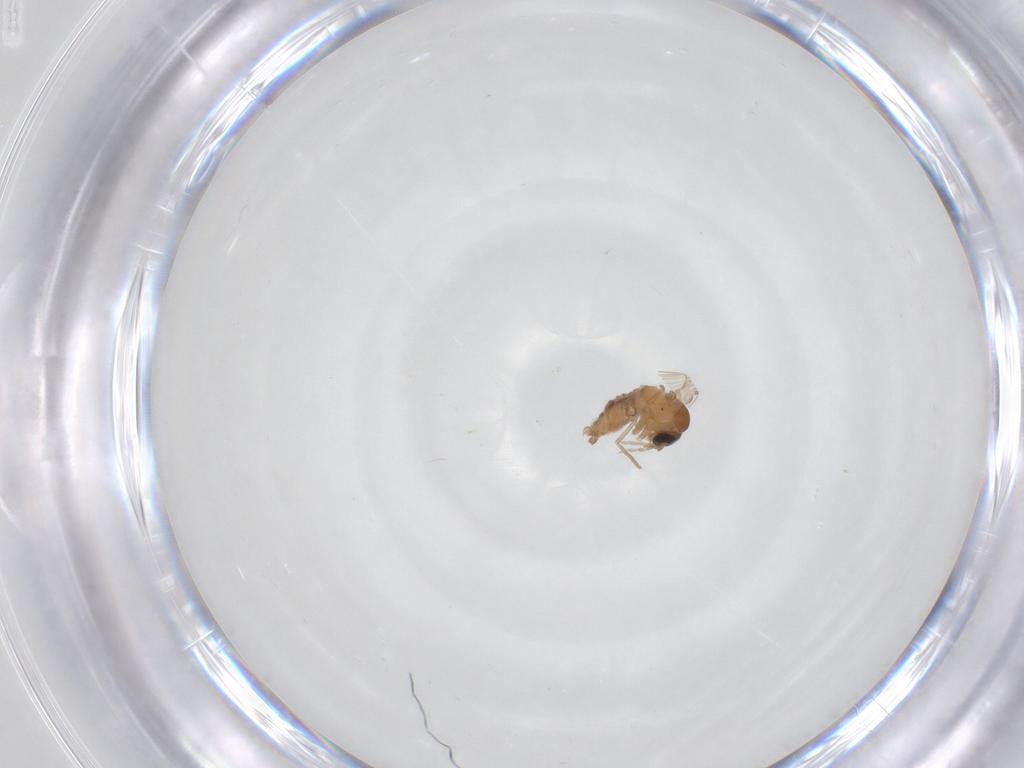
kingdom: Animalia
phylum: Arthropoda
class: Insecta
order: Diptera
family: Psychodidae
